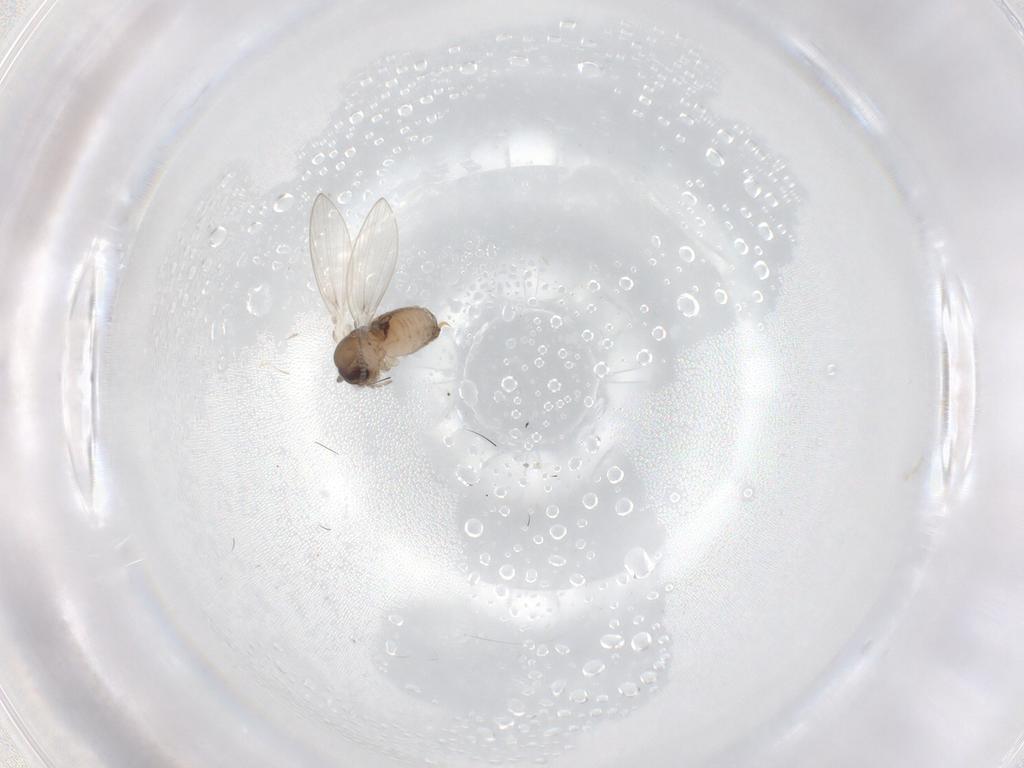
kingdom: Animalia
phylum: Arthropoda
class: Insecta
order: Diptera
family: Psychodidae
